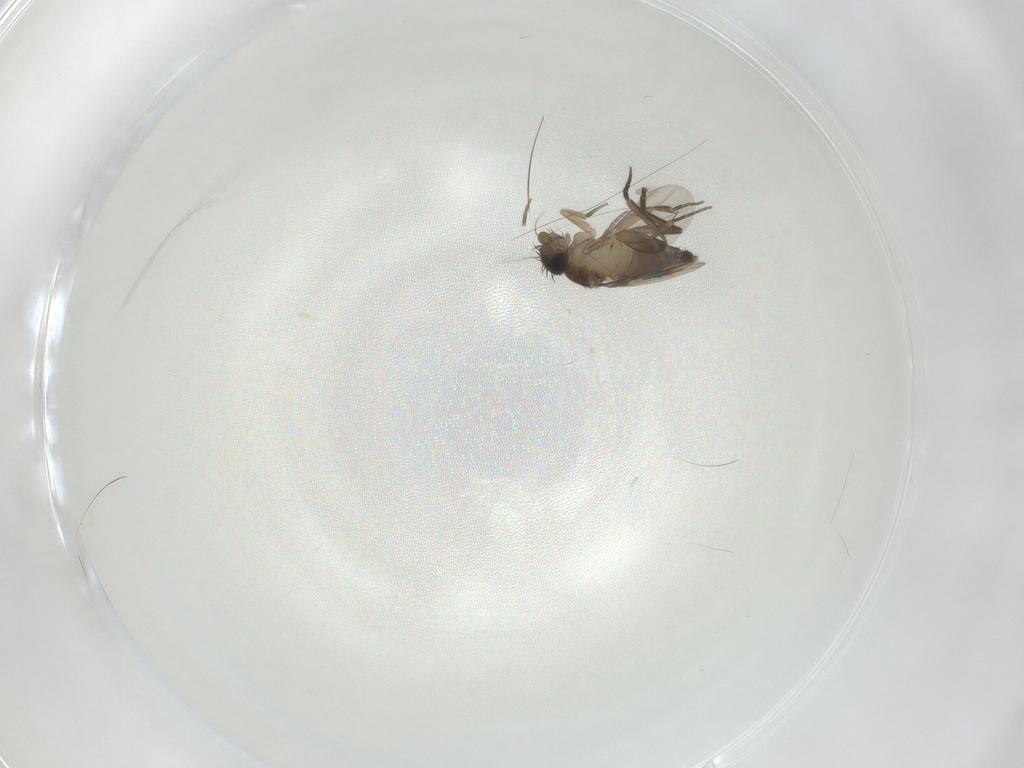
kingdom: Animalia
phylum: Arthropoda
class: Insecta
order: Diptera
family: Phoridae
